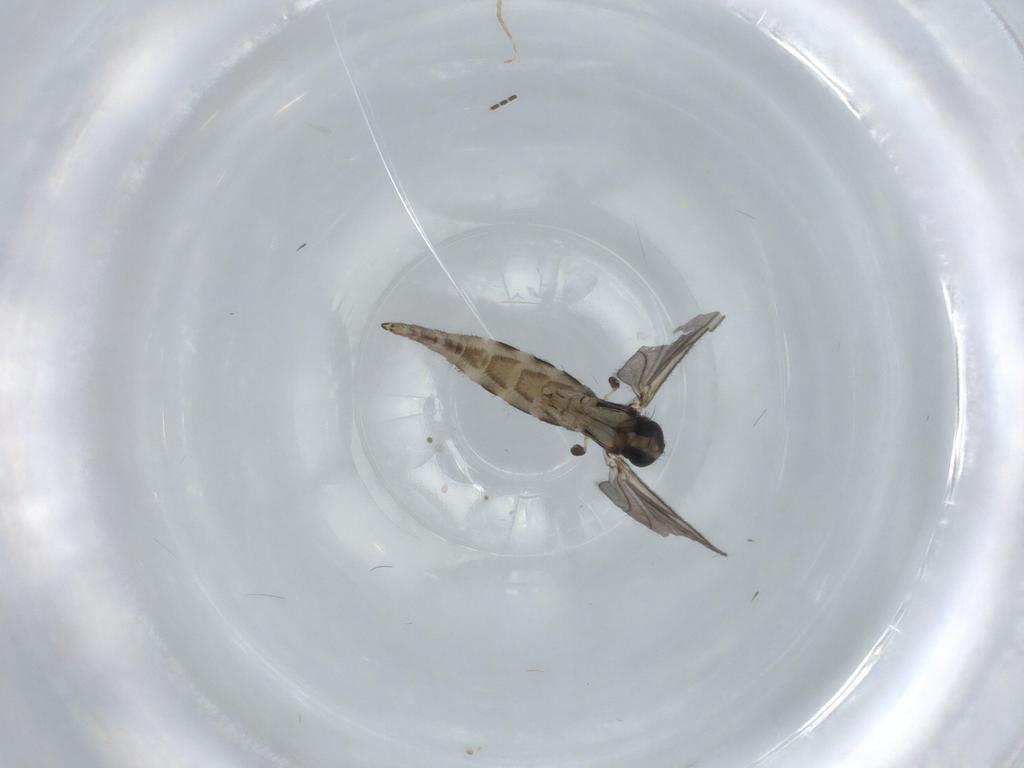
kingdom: Animalia
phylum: Arthropoda
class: Insecta
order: Diptera
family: Sciaridae
